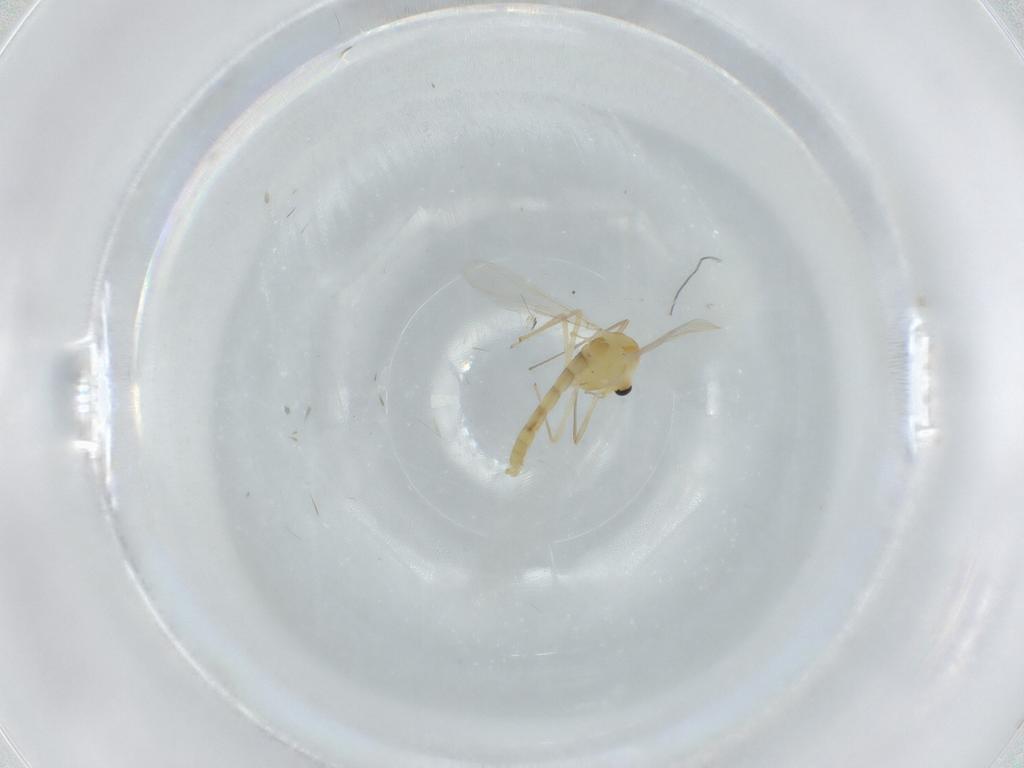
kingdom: Animalia
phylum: Arthropoda
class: Insecta
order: Diptera
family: Chironomidae
